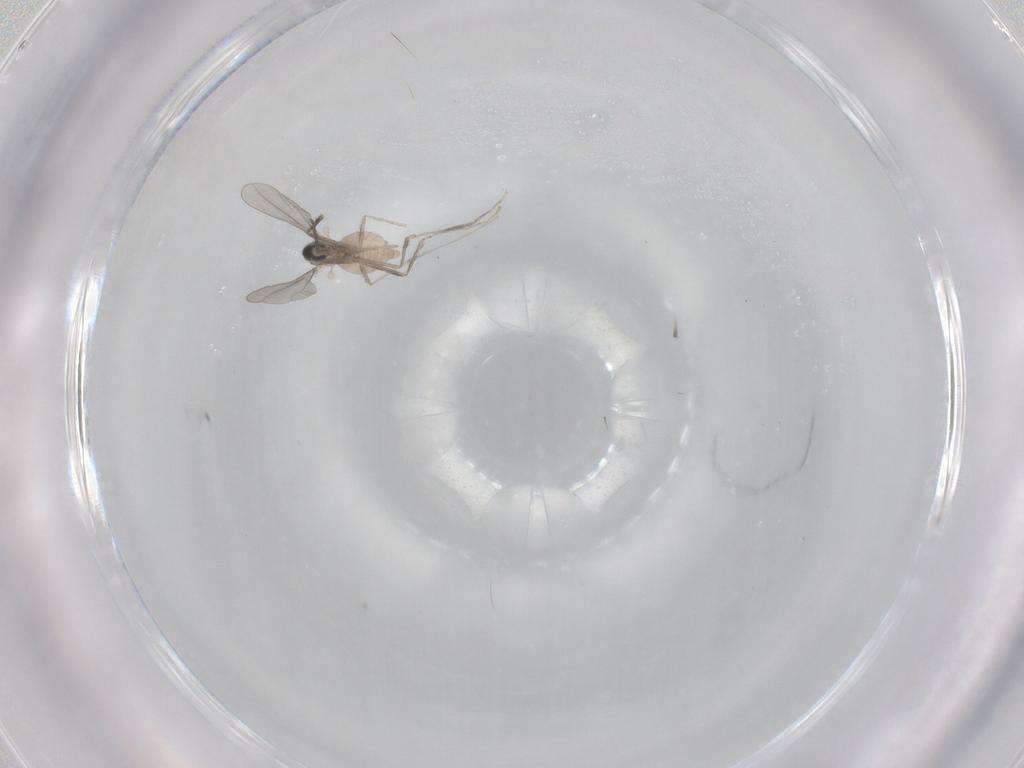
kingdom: Animalia
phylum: Arthropoda
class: Insecta
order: Diptera
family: Cecidomyiidae
